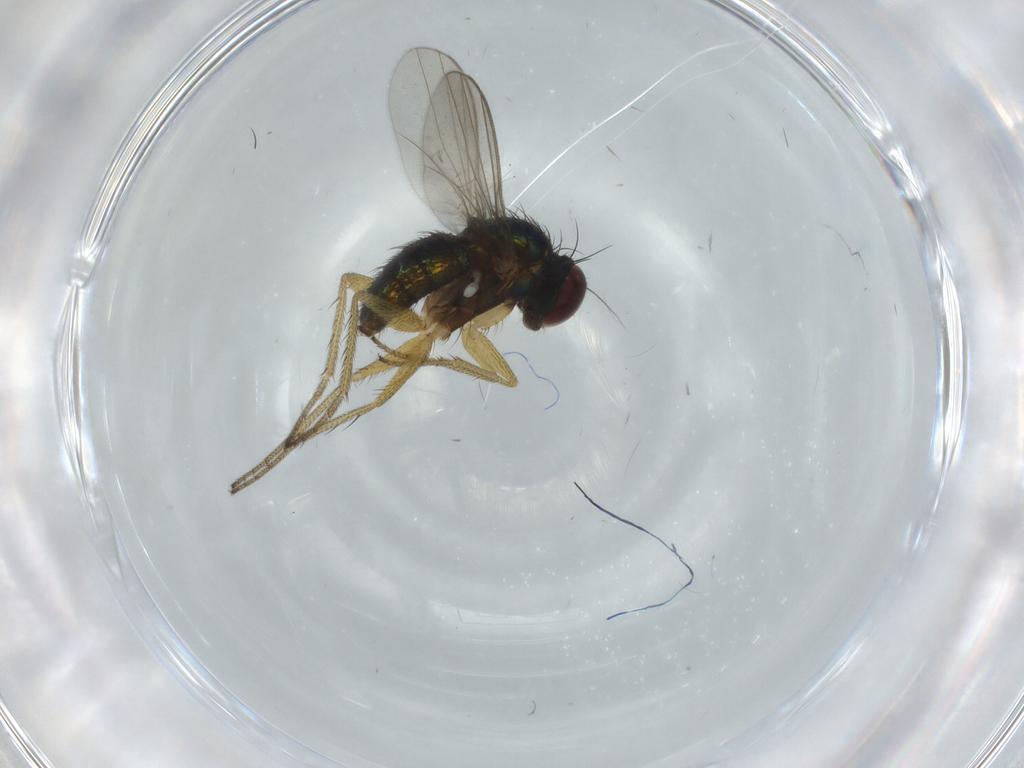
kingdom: Animalia
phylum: Arthropoda
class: Insecta
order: Diptera
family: Dolichopodidae
